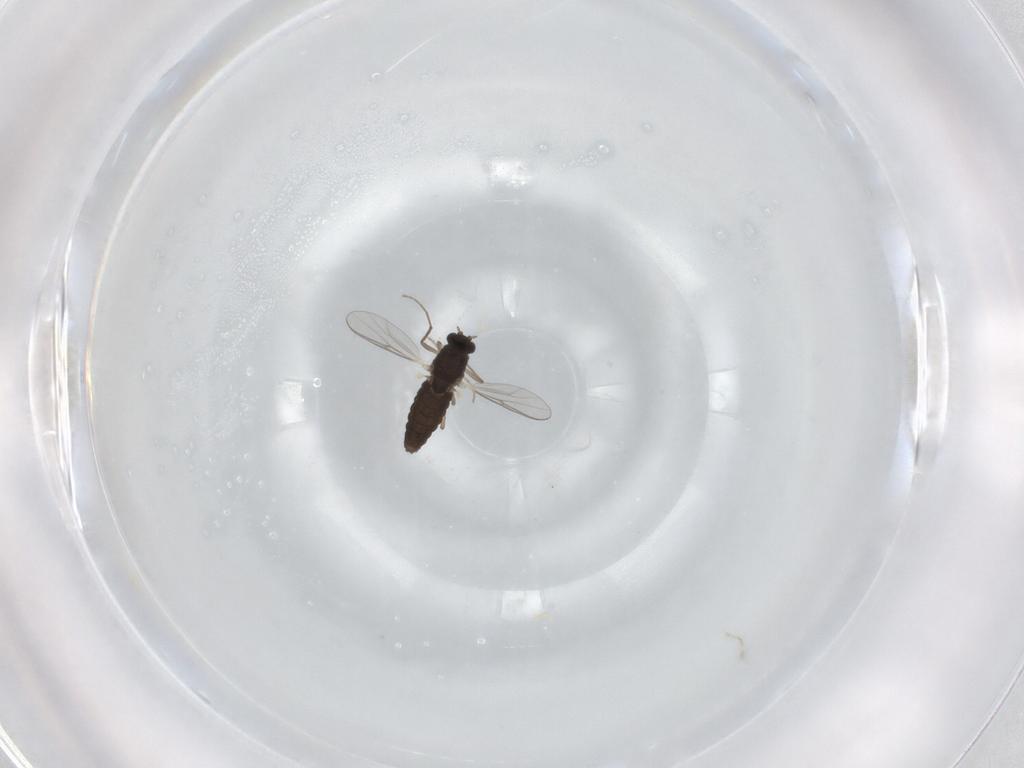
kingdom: Animalia
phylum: Arthropoda
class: Insecta
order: Diptera
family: Chironomidae
